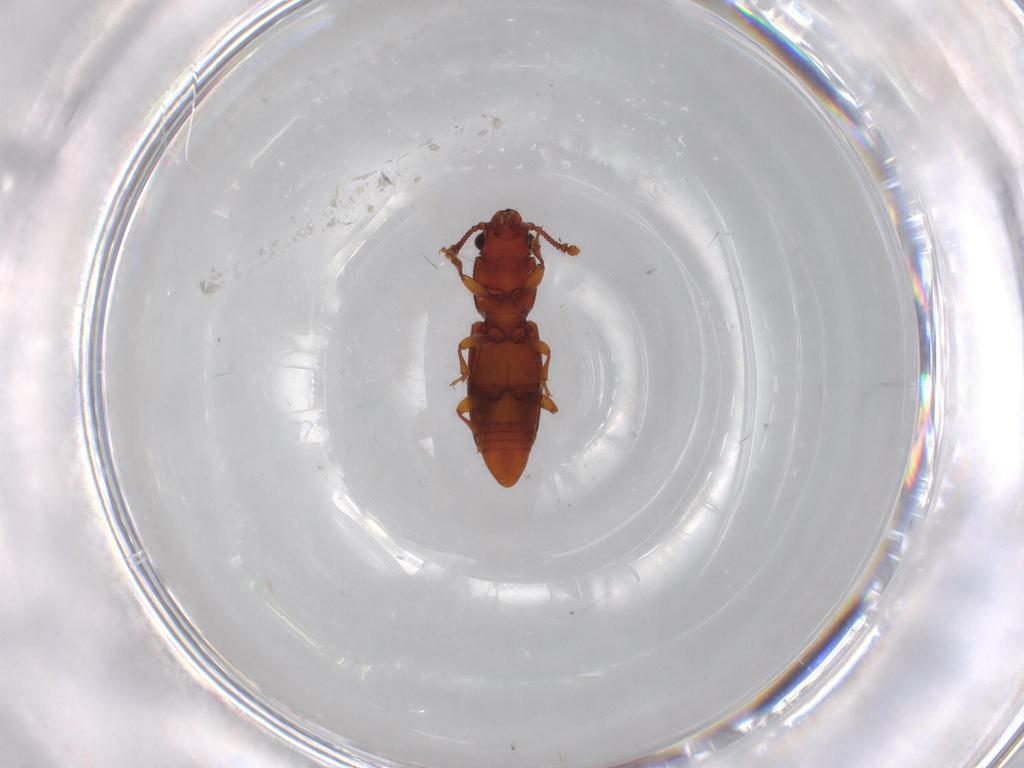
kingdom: Animalia
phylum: Arthropoda
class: Insecta
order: Coleoptera
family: Monotomidae
